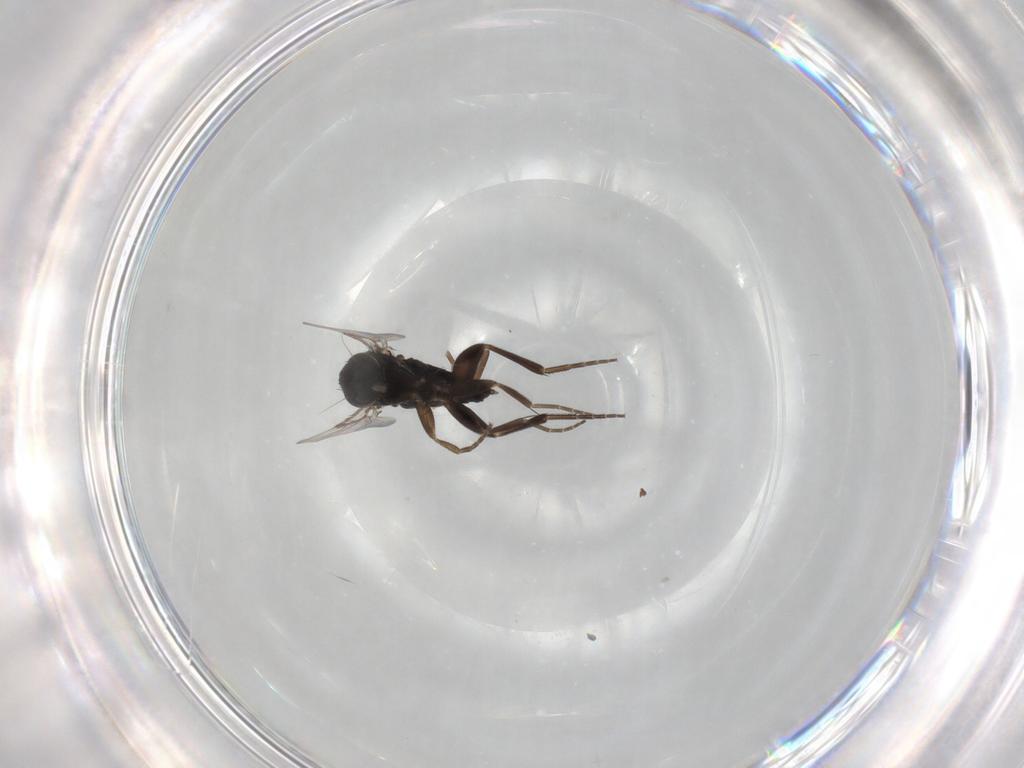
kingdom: Animalia
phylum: Arthropoda
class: Insecta
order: Diptera
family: Phoridae
